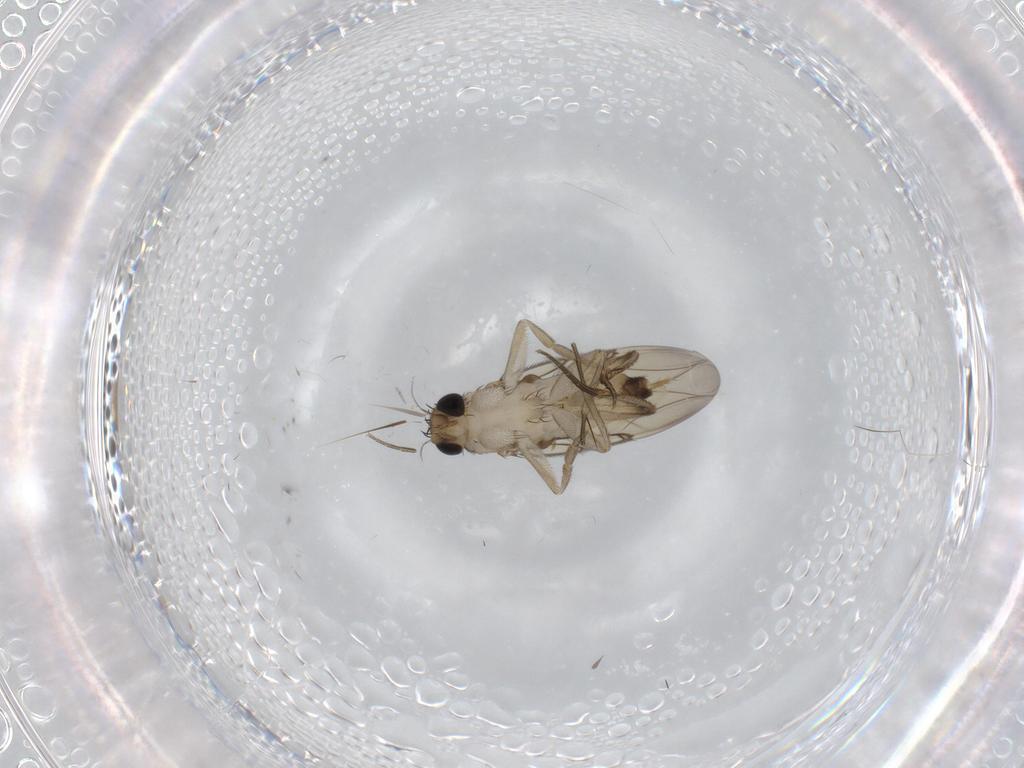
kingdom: Animalia
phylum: Arthropoda
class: Insecta
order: Diptera
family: Phoridae
